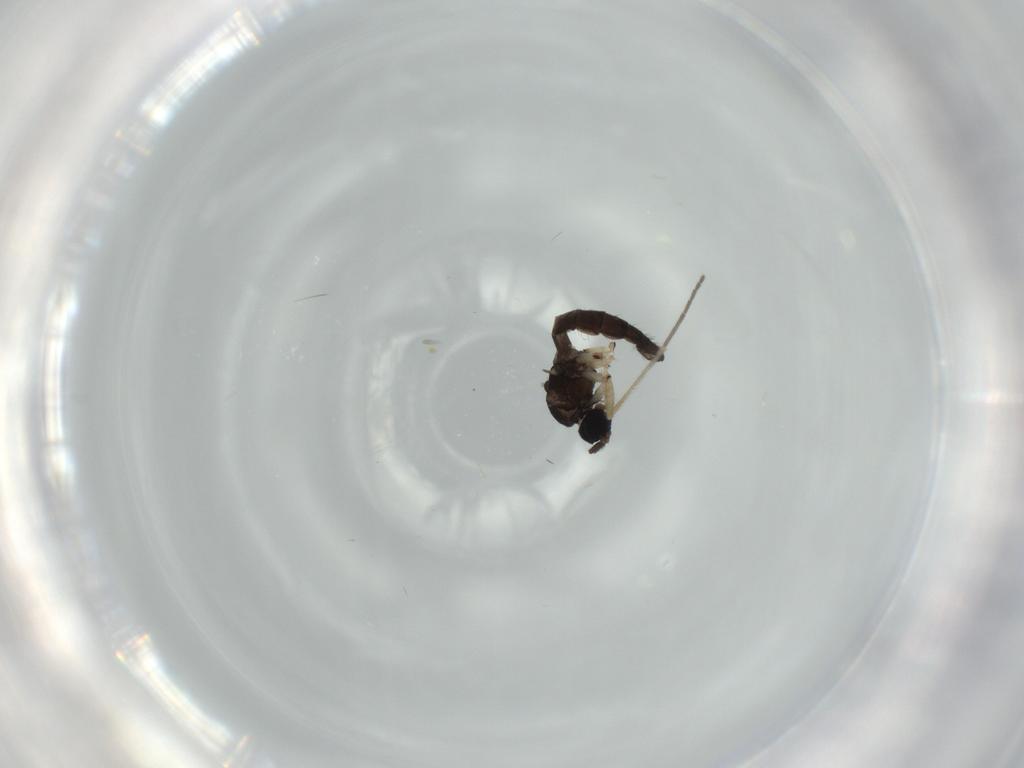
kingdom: Animalia
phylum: Arthropoda
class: Insecta
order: Diptera
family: Sciaridae
